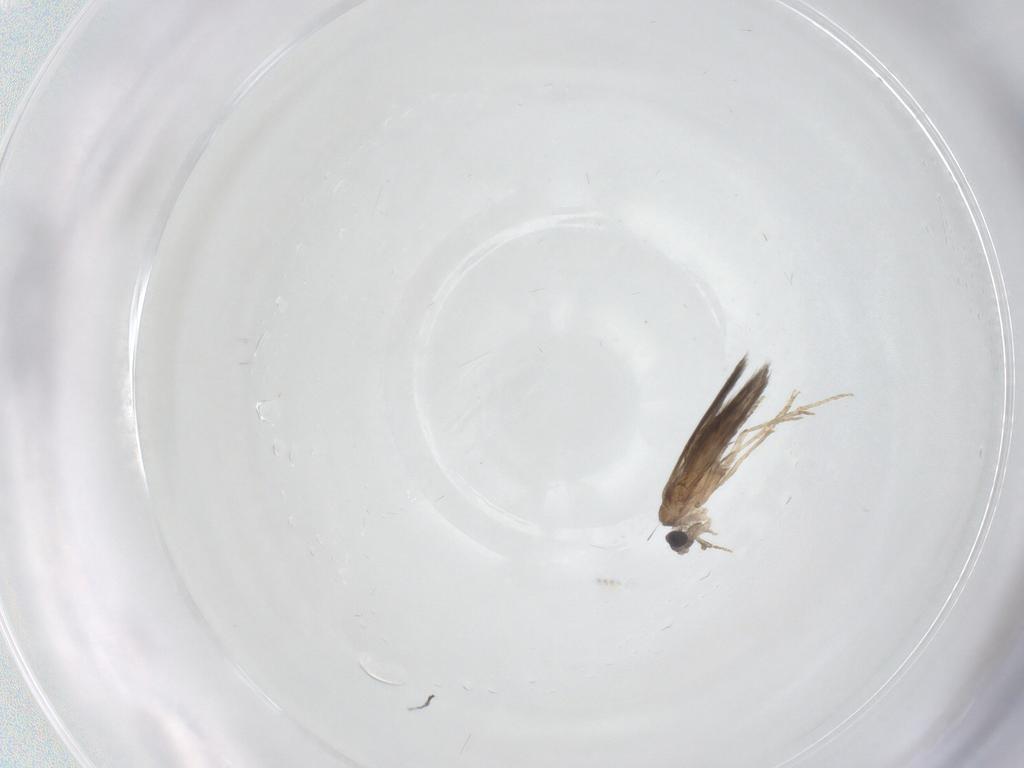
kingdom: Animalia
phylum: Arthropoda
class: Insecta
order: Trichoptera
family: Hydroptilidae
